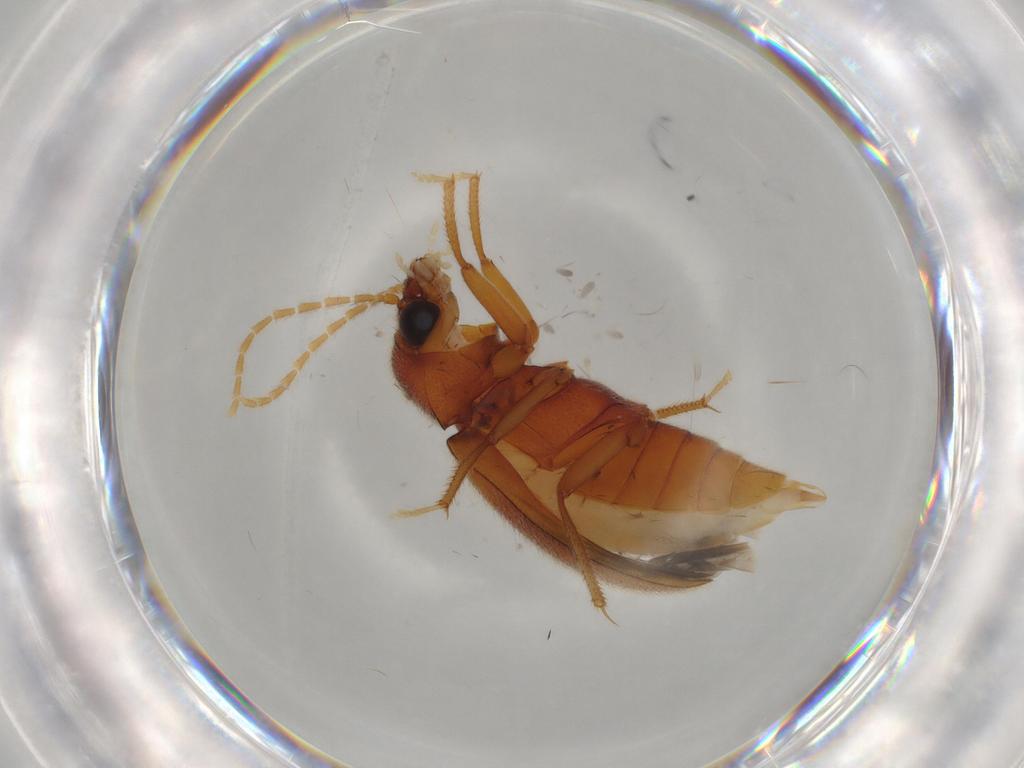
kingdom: Animalia
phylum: Arthropoda
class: Insecta
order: Coleoptera
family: Ptilodactylidae
